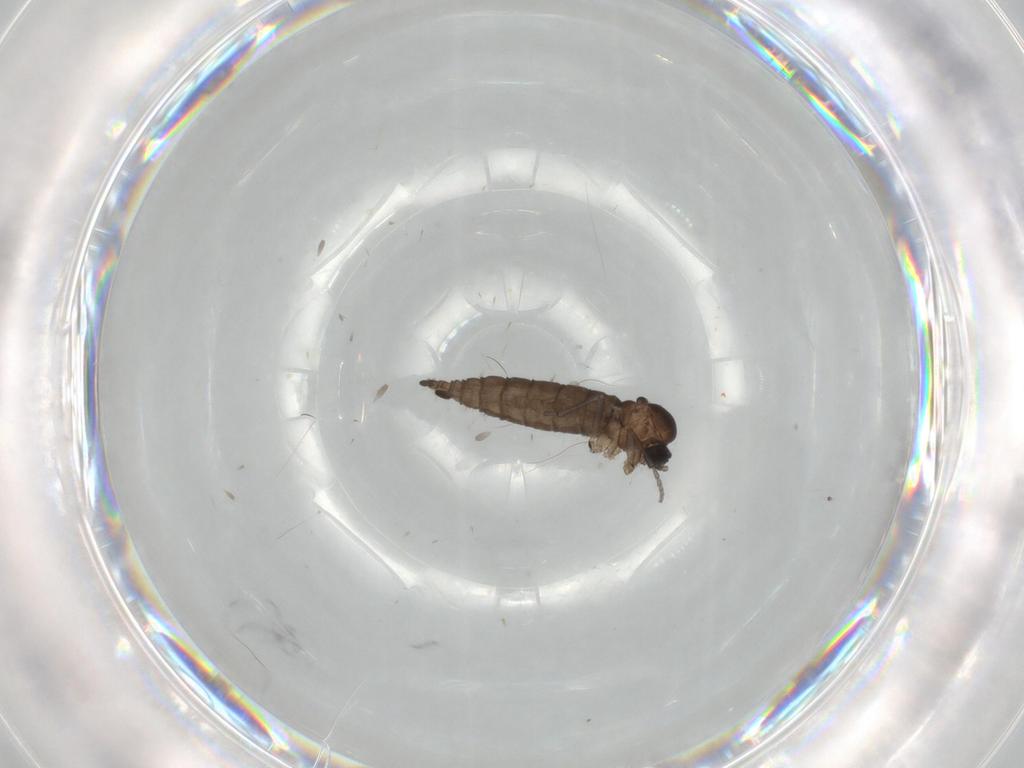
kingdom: Animalia
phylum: Arthropoda
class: Insecta
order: Diptera
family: Sciaridae
